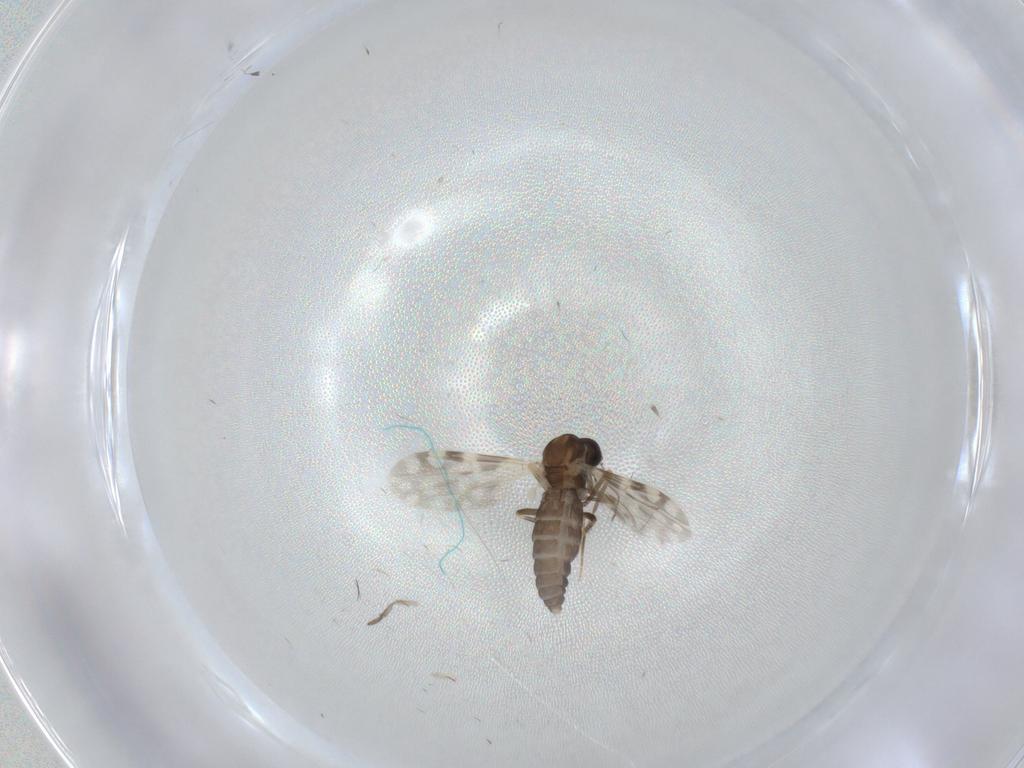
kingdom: Animalia
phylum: Arthropoda
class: Insecta
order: Diptera
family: Ceratopogonidae
